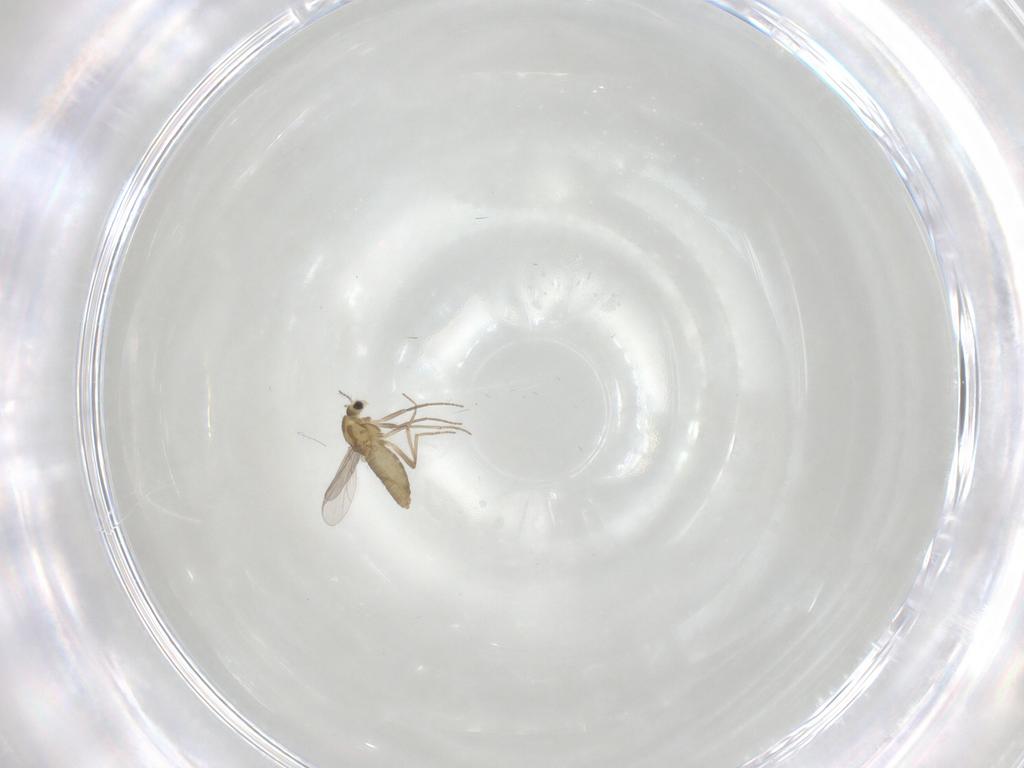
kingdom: Animalia
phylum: Arthropoda
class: Insecta
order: Diptera
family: Chironomidae
